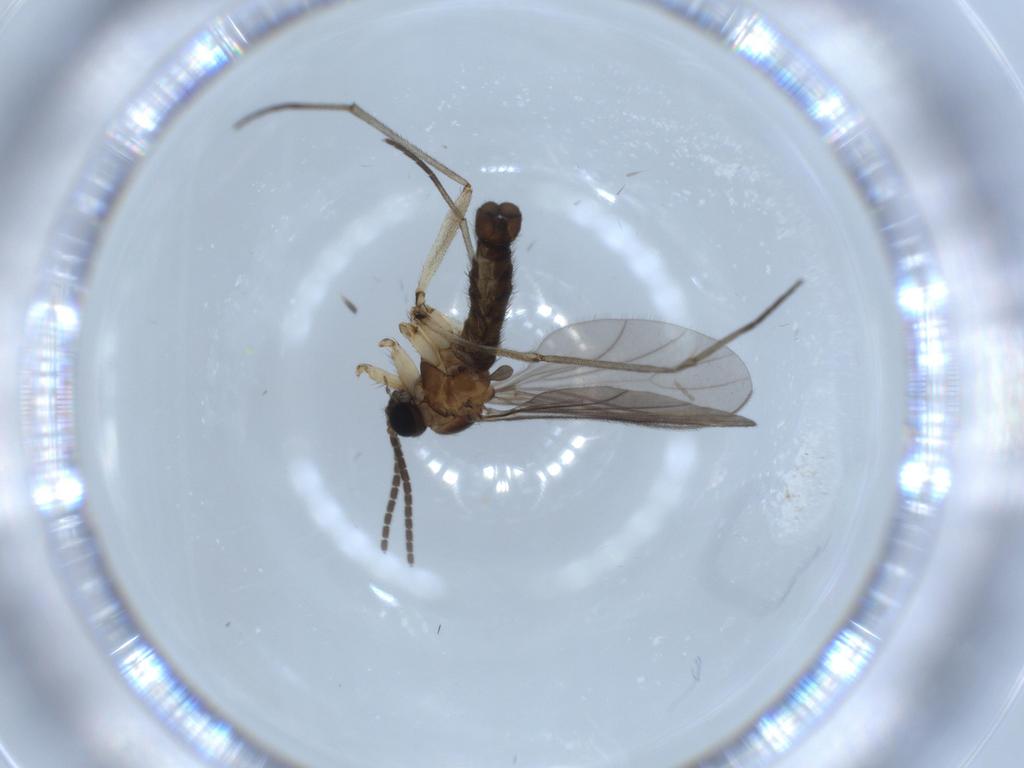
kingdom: Animalia
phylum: Arthropoda
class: Insecta
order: Diptera
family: Sciaridae
